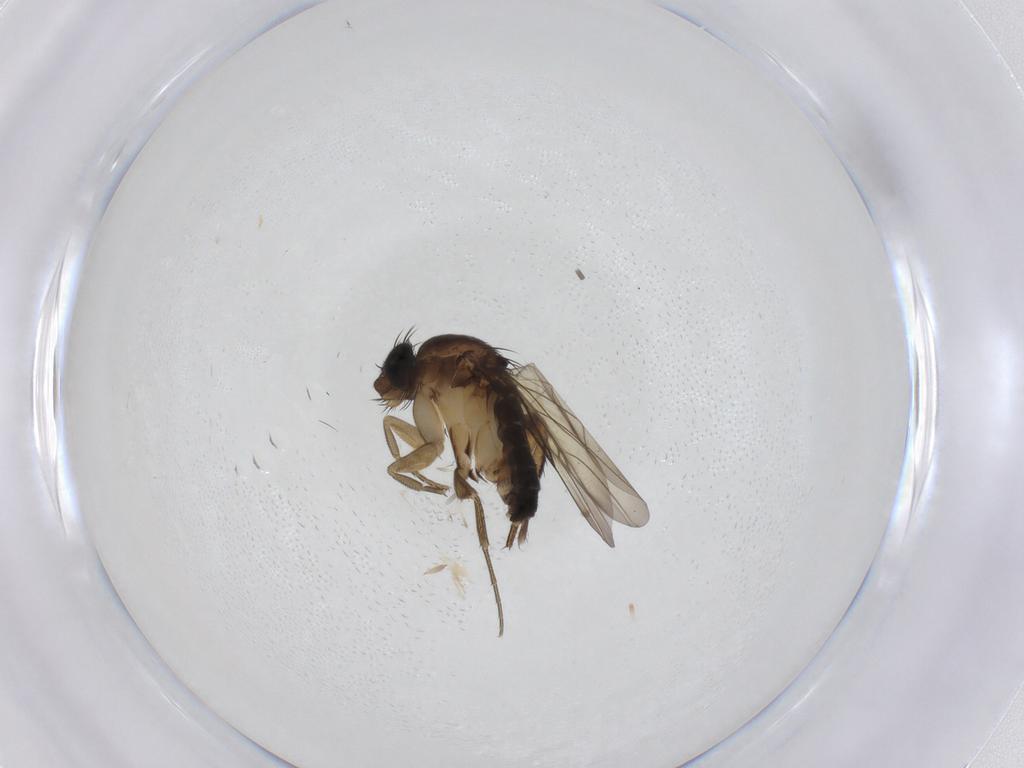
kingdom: Animalia
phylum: Arthropoda
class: Insecta
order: Diptera
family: Phoridae
